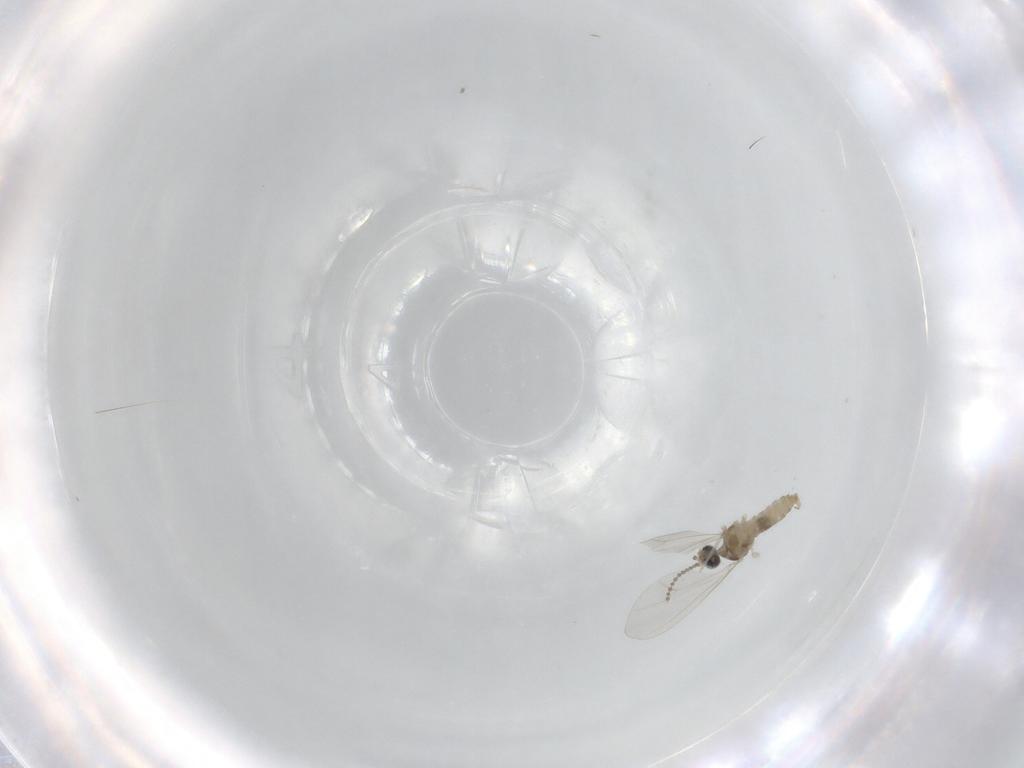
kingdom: Animalia
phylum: Arthropoda
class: Insecta
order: Diptera
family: Cecidomyiidae
